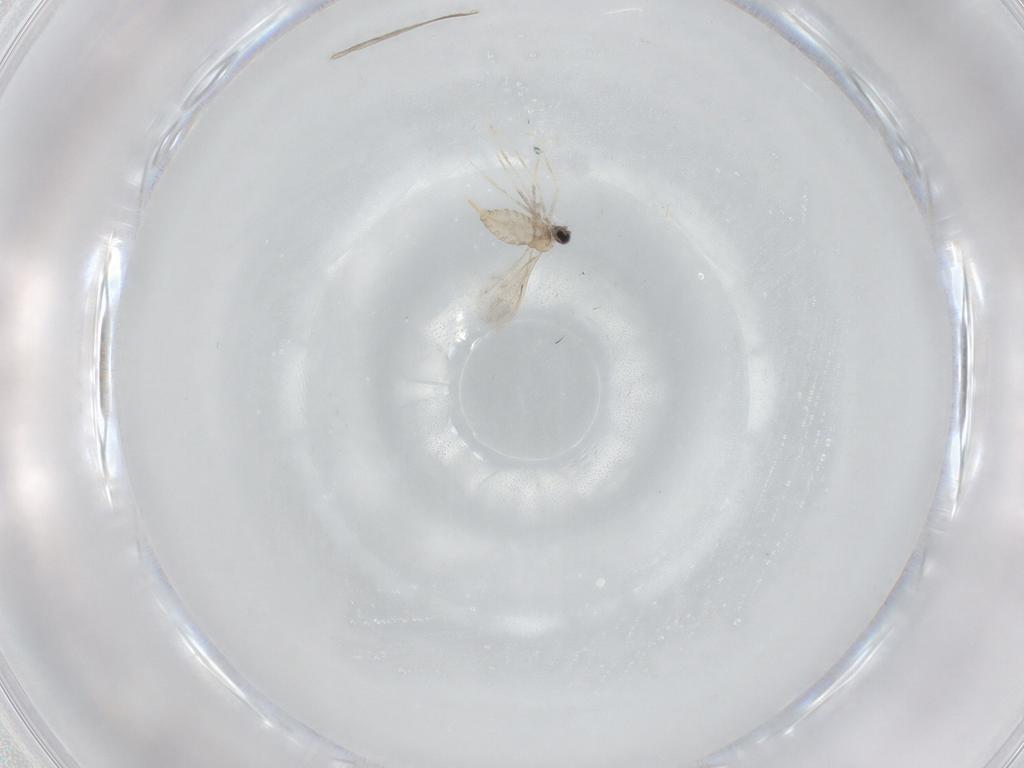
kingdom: Animalia
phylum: Arthropoda
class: Insecta
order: Diptera
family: Cecidomyiidae
